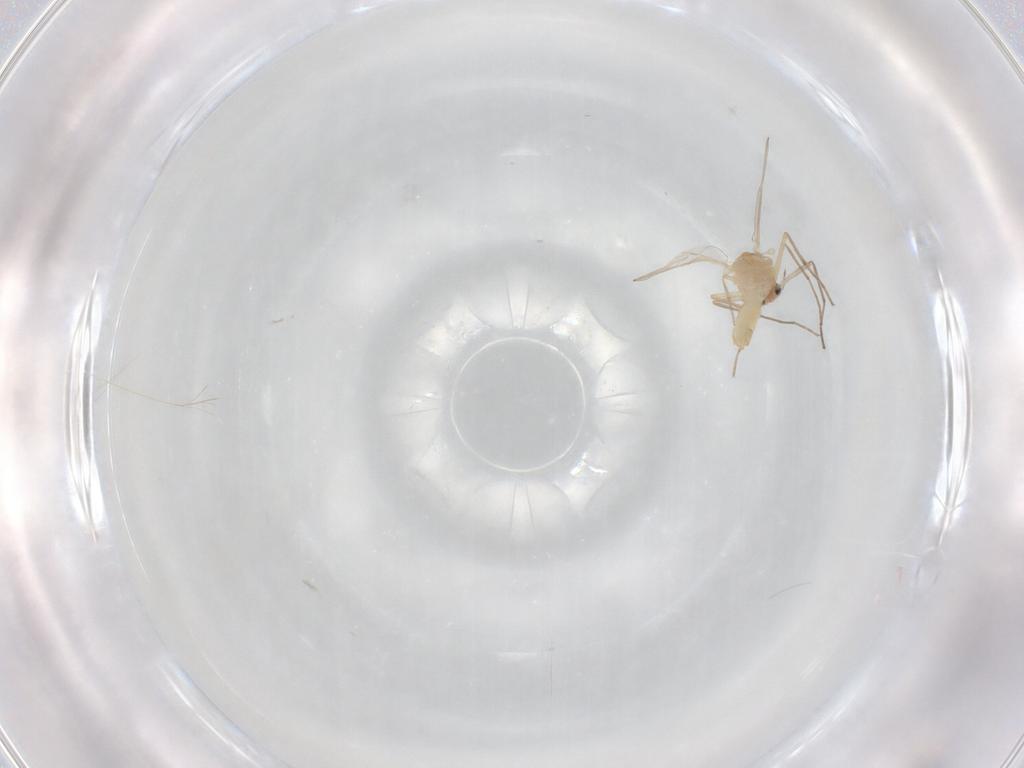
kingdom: Animalia
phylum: Arthropoda
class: Insecta
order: Diptera
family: Chironomidae
